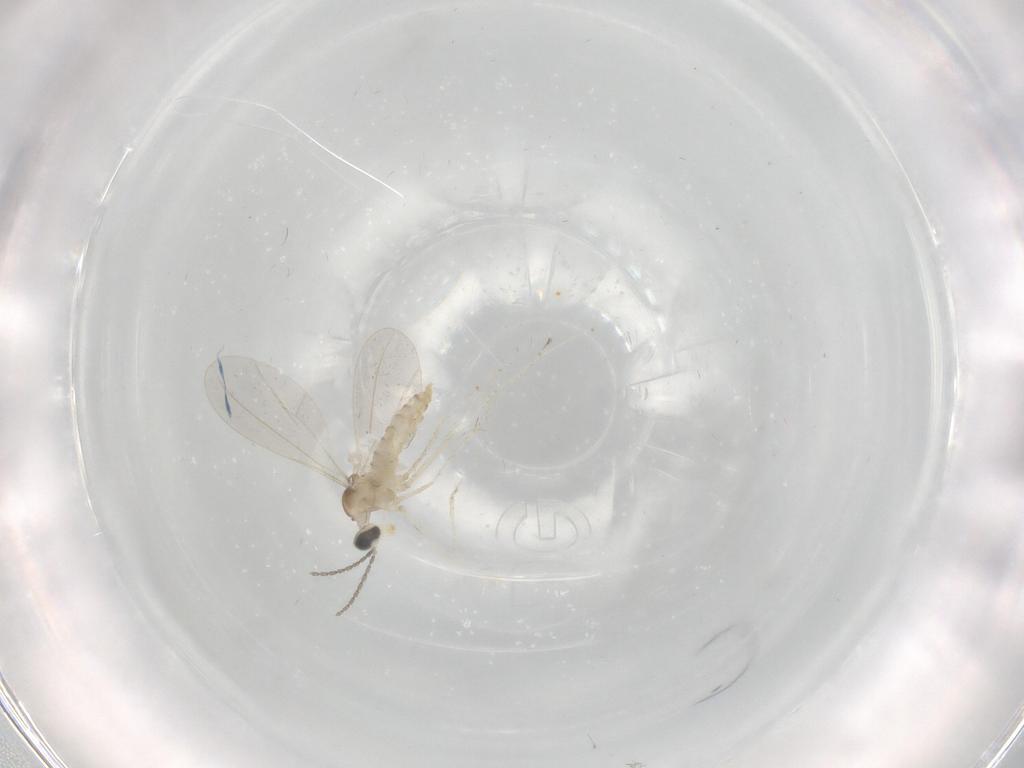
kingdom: Animalia
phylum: Arthropoda
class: Insecta
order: Diptera
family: Cecidomyiidae
